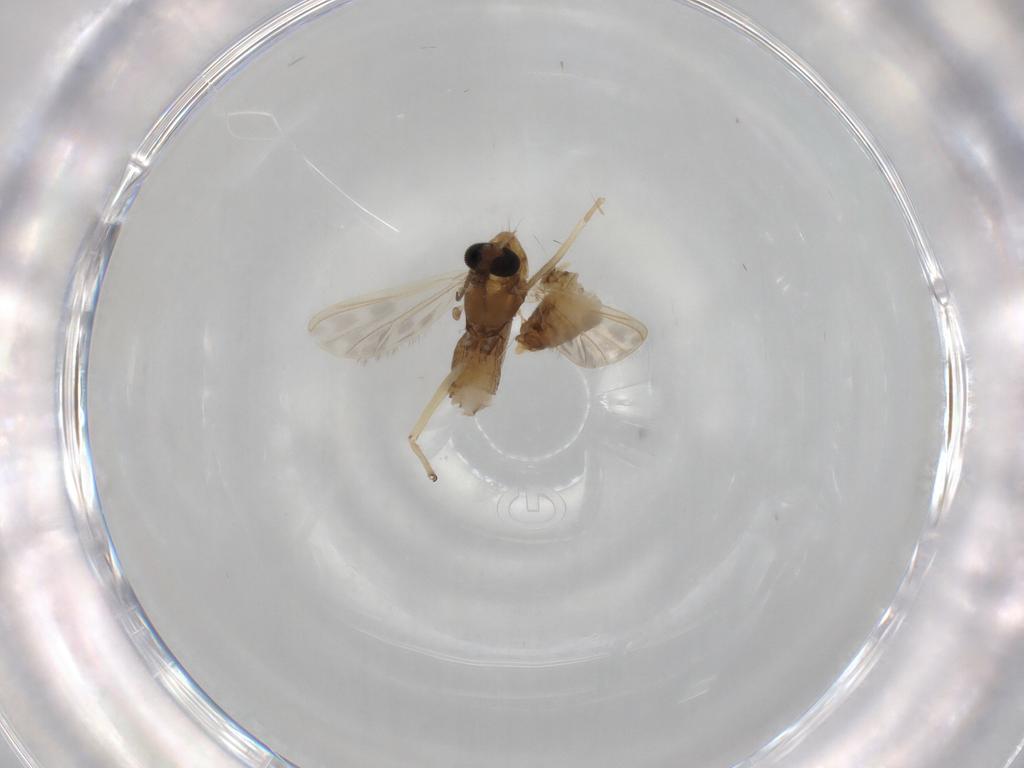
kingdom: Animalia
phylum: Arthropoda
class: Insecta
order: Diptera
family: Chironomidae
